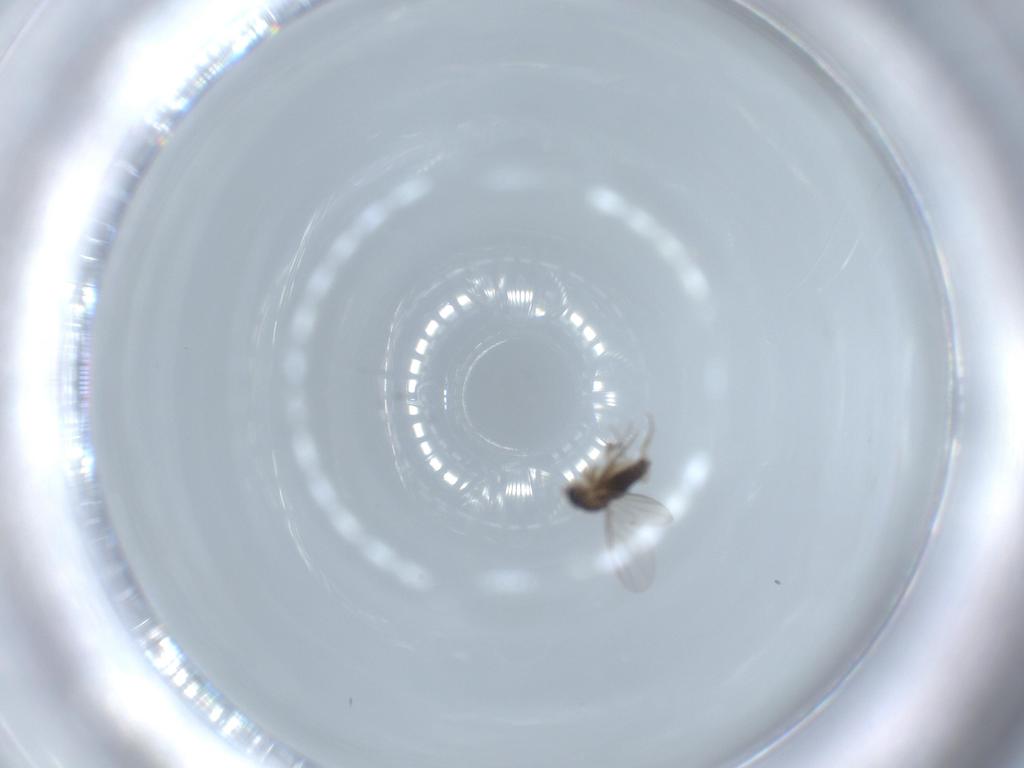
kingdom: Animalia
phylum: Arthropoda
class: Insecta
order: Diptera
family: Phoridae
